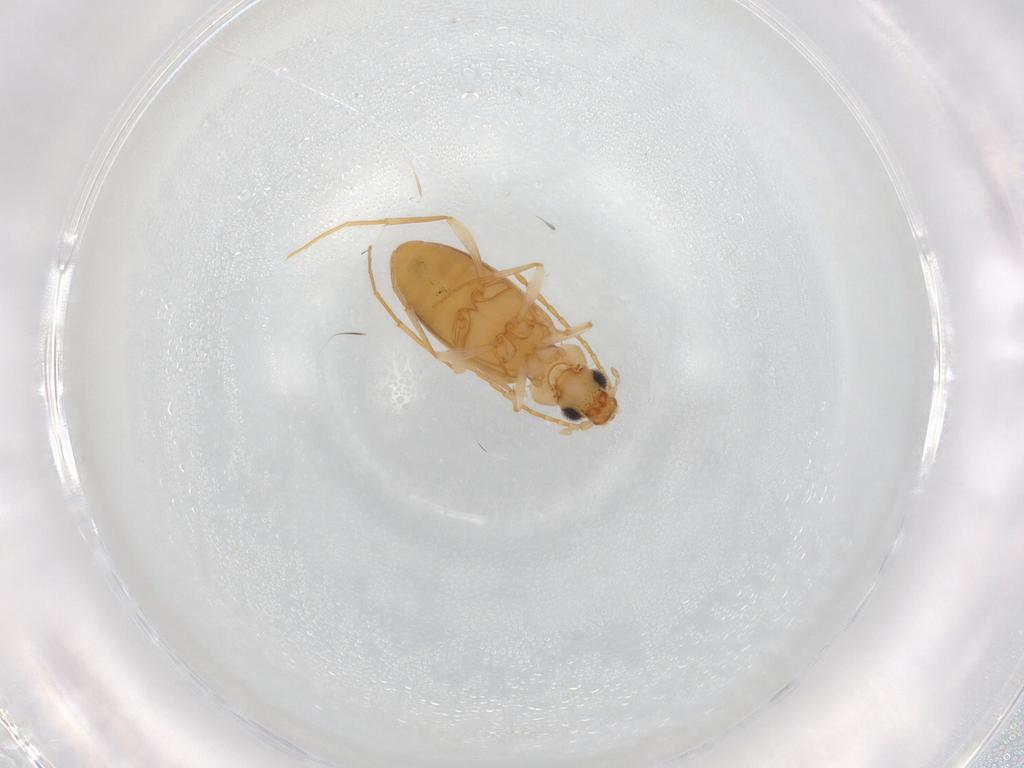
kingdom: Animalia
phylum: Arthropoda
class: Insecta
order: Coleoptera
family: Anthicidae
